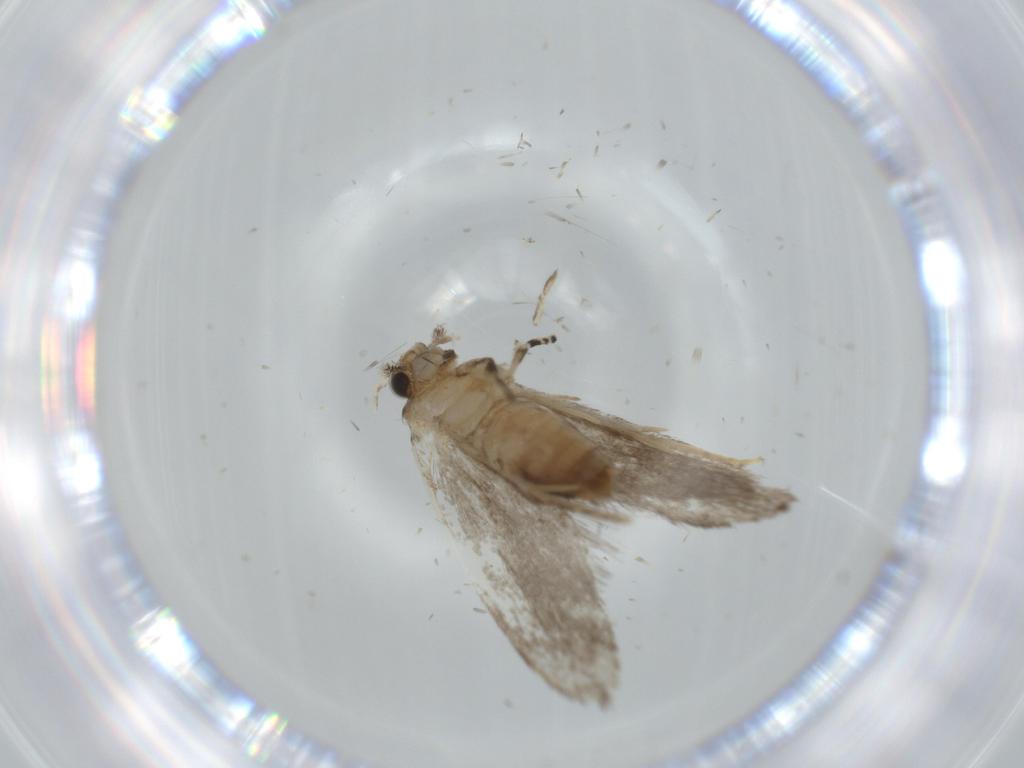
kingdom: Animalia
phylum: Arthropoda
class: Insecta
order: Lepidoptera
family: Tineidae
